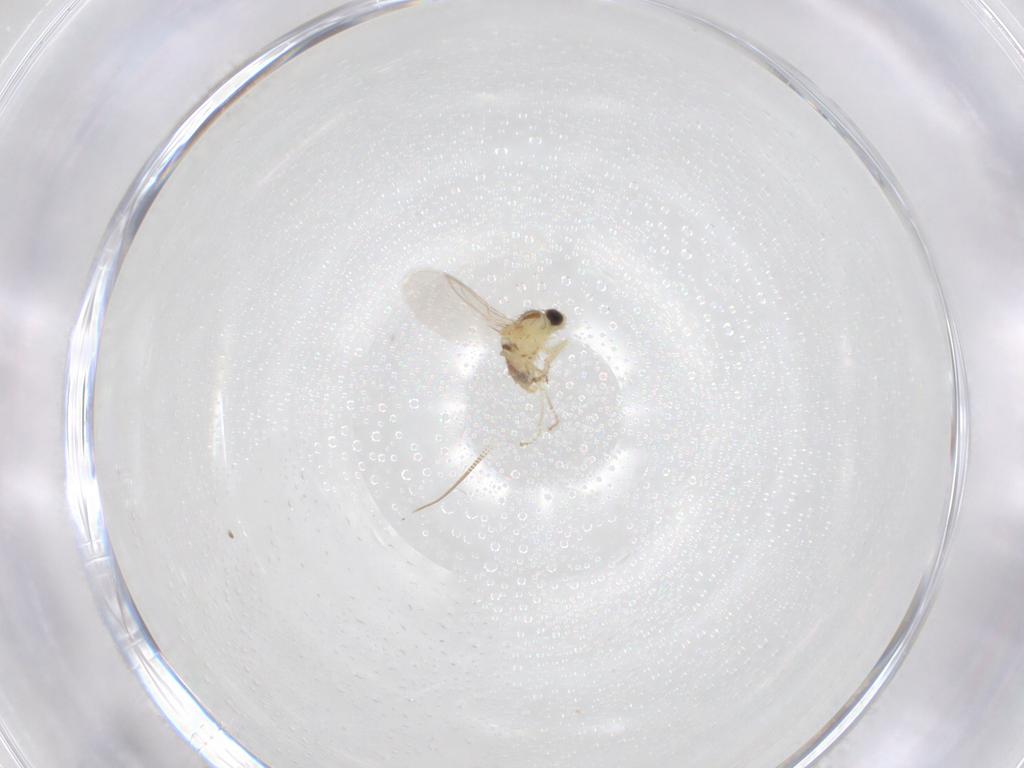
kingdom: Animalia
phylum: Arthropoda
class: Insecta
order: Diptera
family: Agromyzidae
